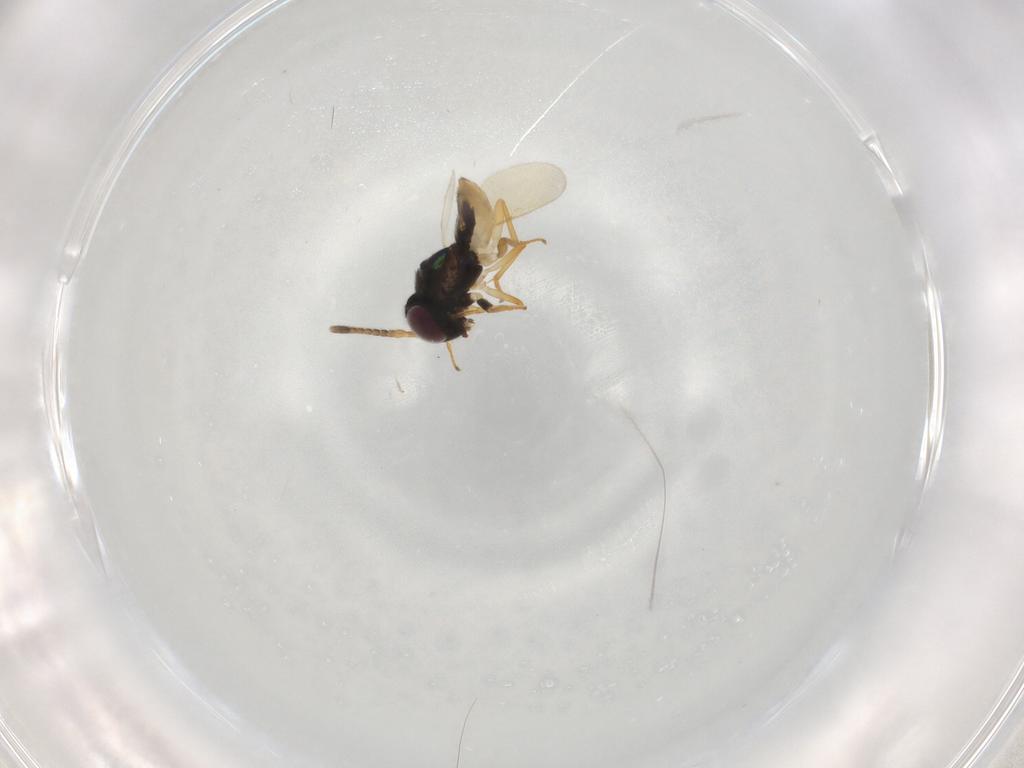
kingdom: Animalia
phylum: Arthropoda
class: Insecta
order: Hymenoptera
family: Encyrtidae
